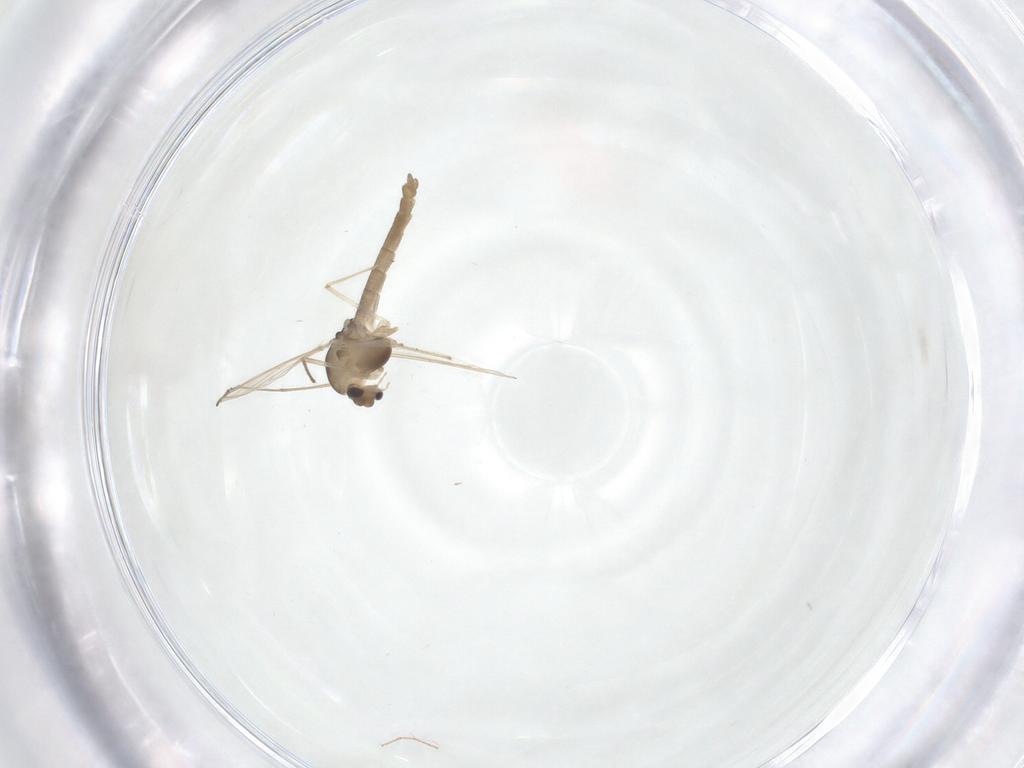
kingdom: Animalia
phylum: Arthropoda
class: Insecta
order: Diptera
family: Chironomidae
